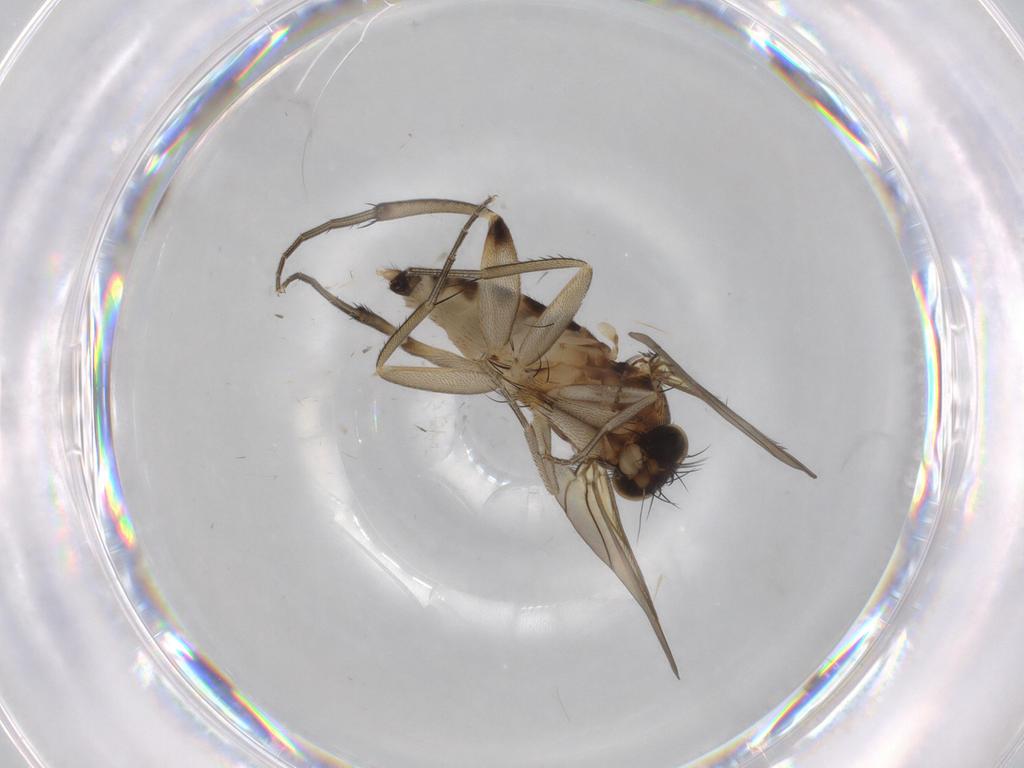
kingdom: Animalia
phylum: Arthropoda
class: Insecta
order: Diptera
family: Phoridae
